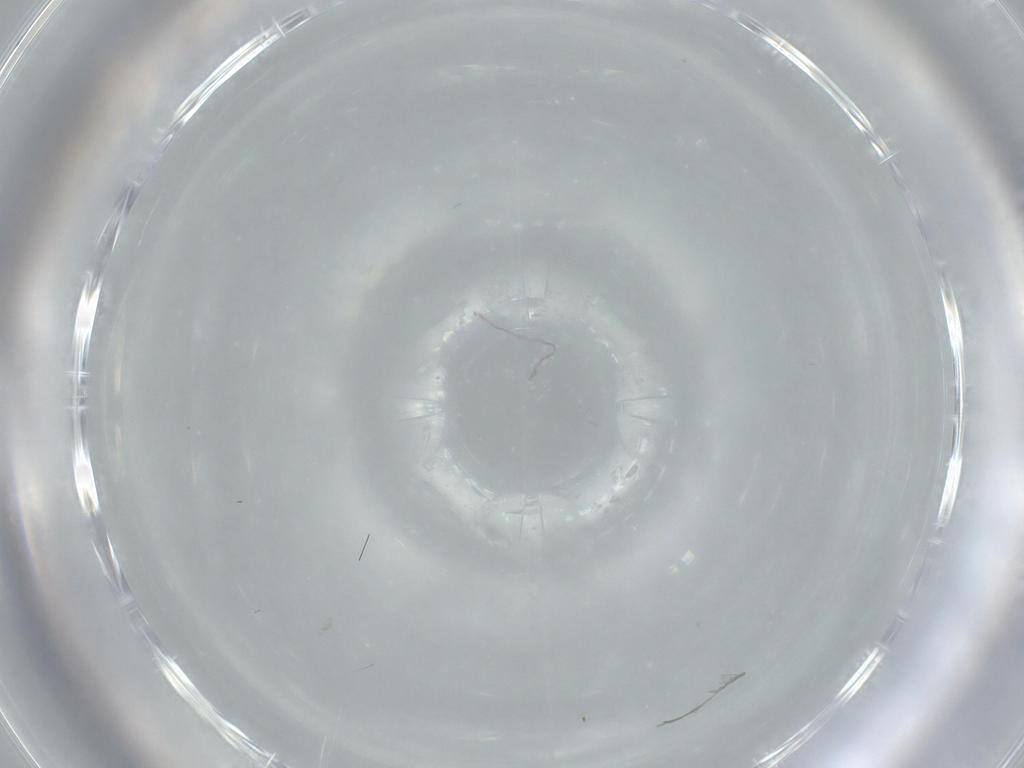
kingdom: Animalia
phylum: Arthropoda
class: Insecta
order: Diptera
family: Cecidomyiidae
